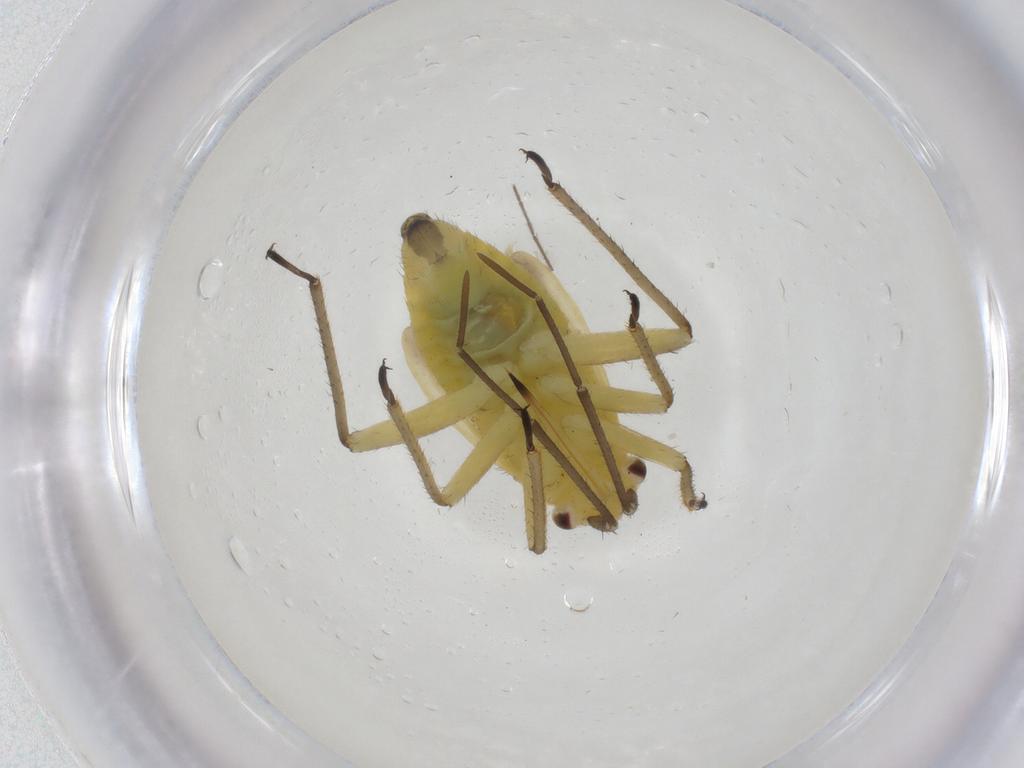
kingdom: Animalia
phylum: Arthropoda
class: Insecta
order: Hemiptera
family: Miridae
